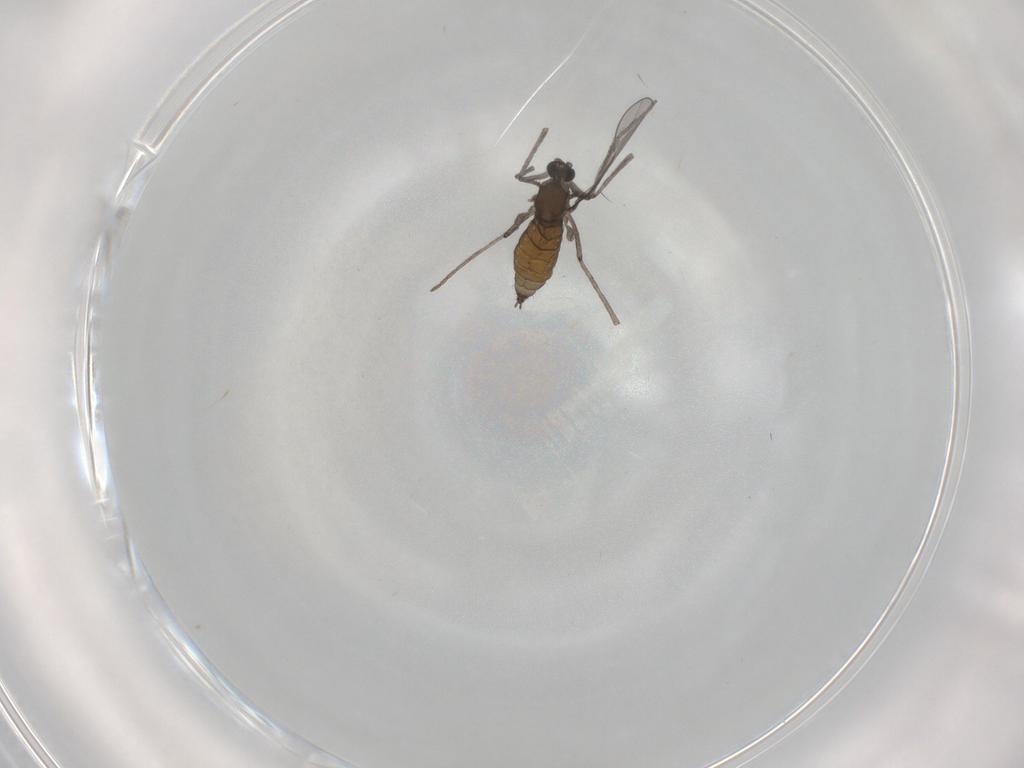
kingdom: Animalia
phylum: Arthropoda
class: Insecta
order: Diptera
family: Cecidomyiidae
